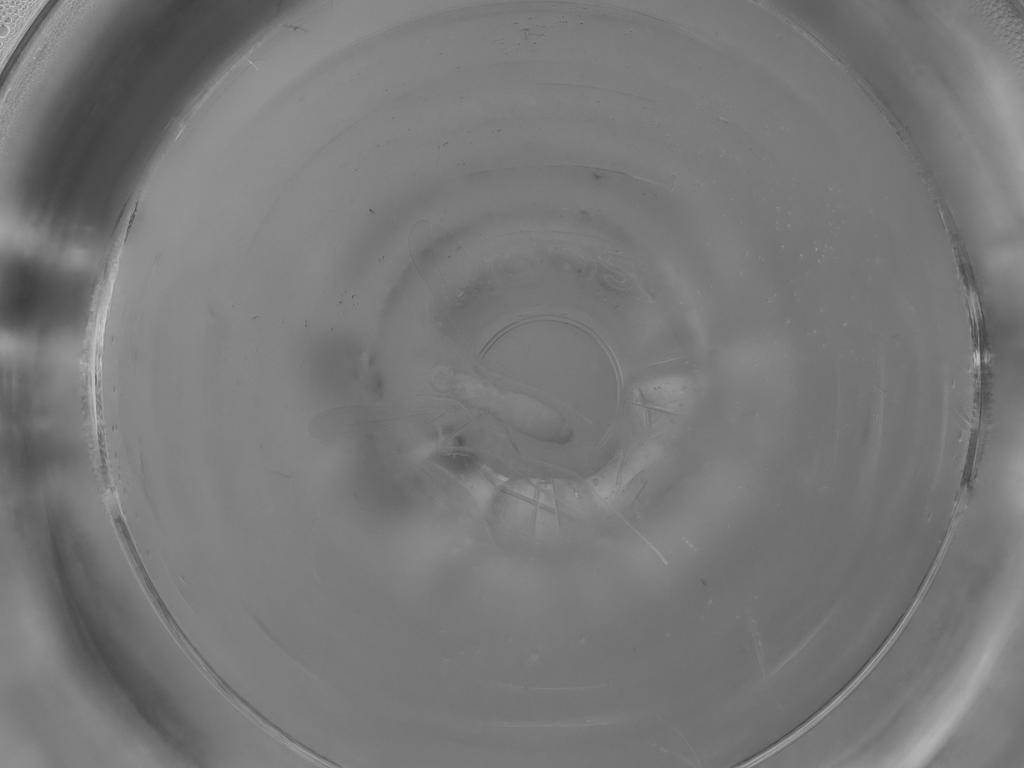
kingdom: Animalia
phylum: Arthropoda
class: Insecta
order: Diptera
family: Cecidomyiidae
